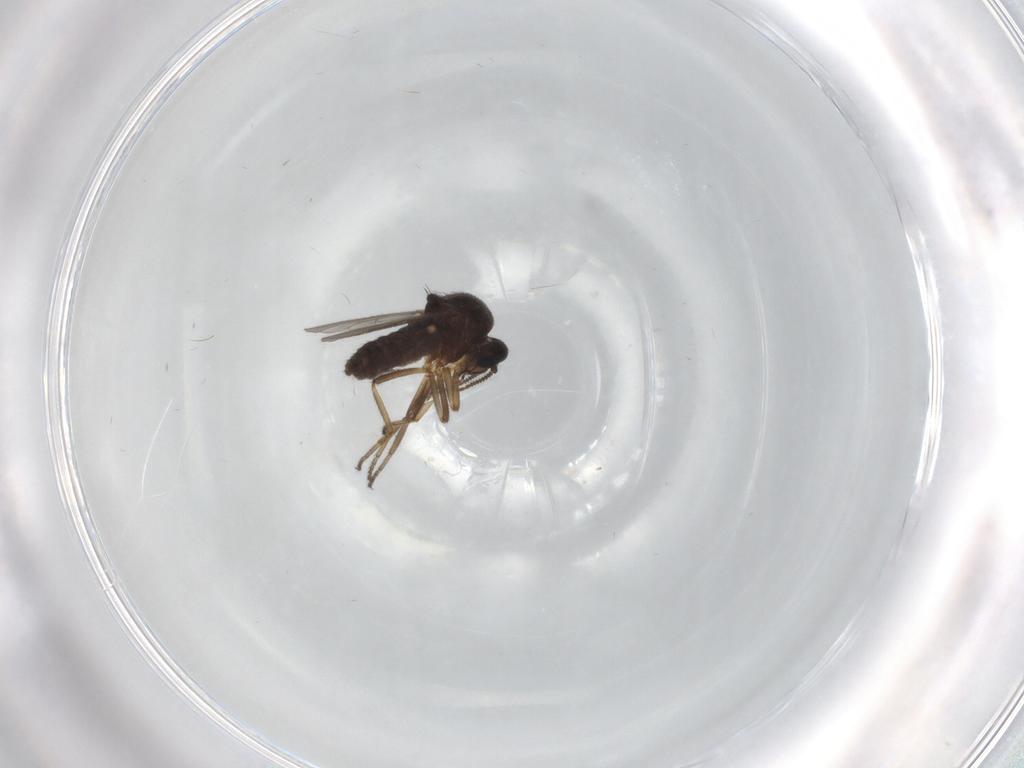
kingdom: Animalia
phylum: Arthropoda
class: Insecta
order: Diptera
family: Ceratopogonidae
